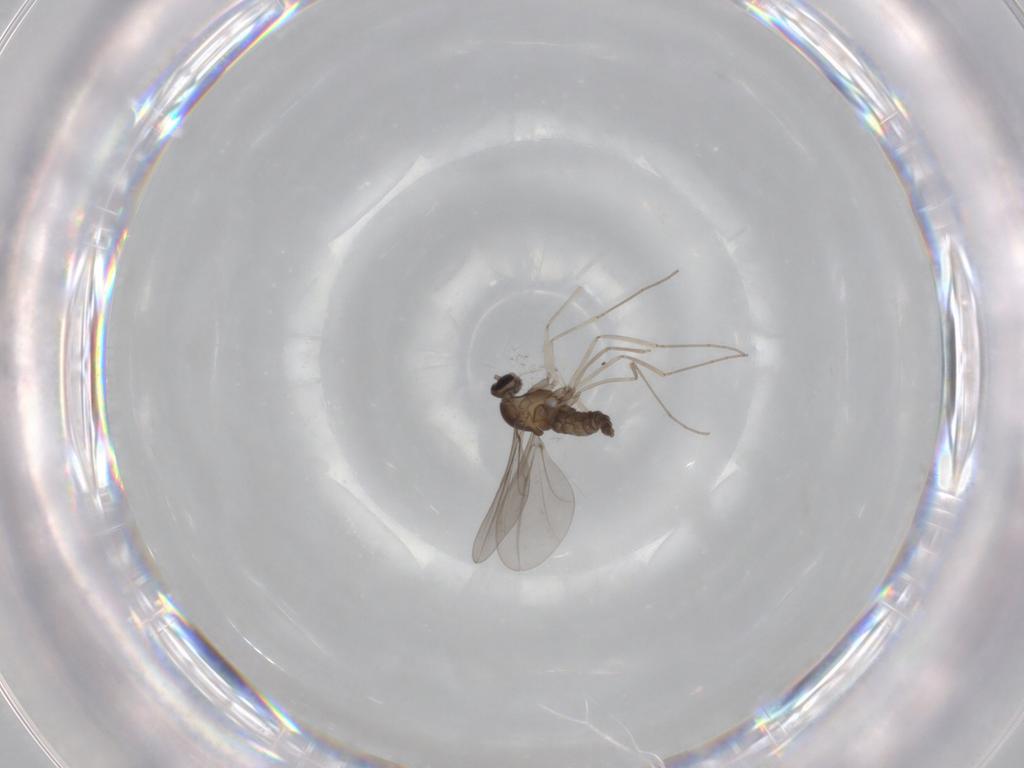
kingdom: Animalia
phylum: Arthropoda
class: Insecta
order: Diptera
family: Cecidomyiidae
